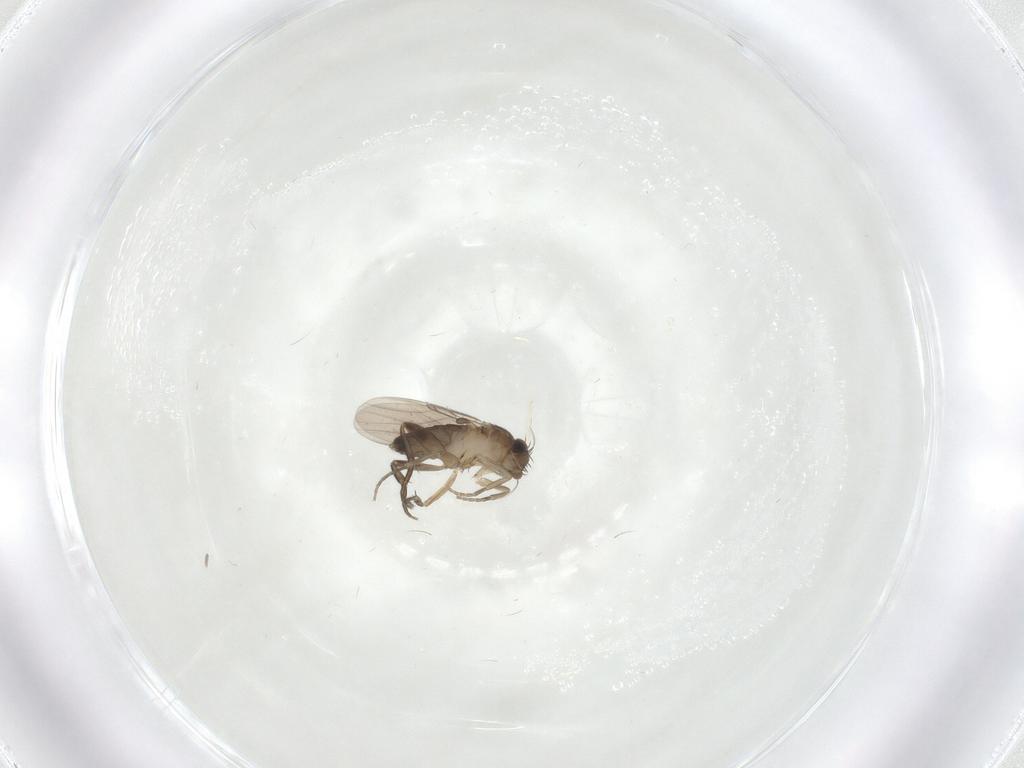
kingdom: Animalia
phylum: Arthropoda
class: Insecta
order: Diptera
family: Phoridae
